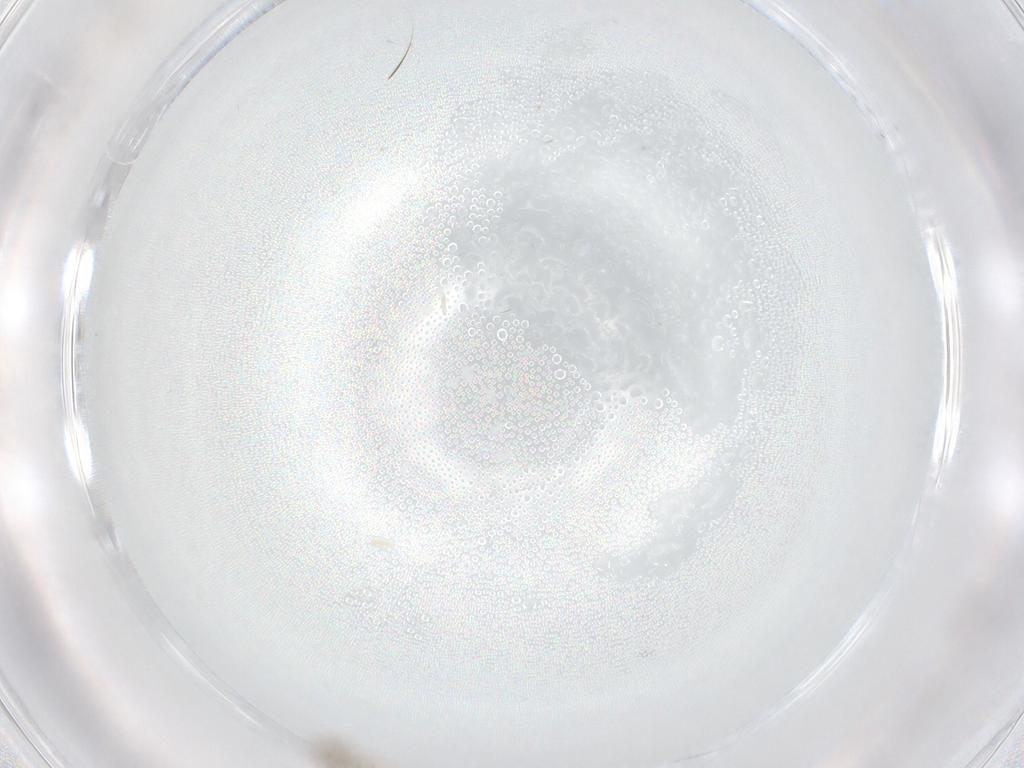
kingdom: Animalia
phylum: Arthropoda
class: Insecta
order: Diptera
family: Cecidomyiidae
